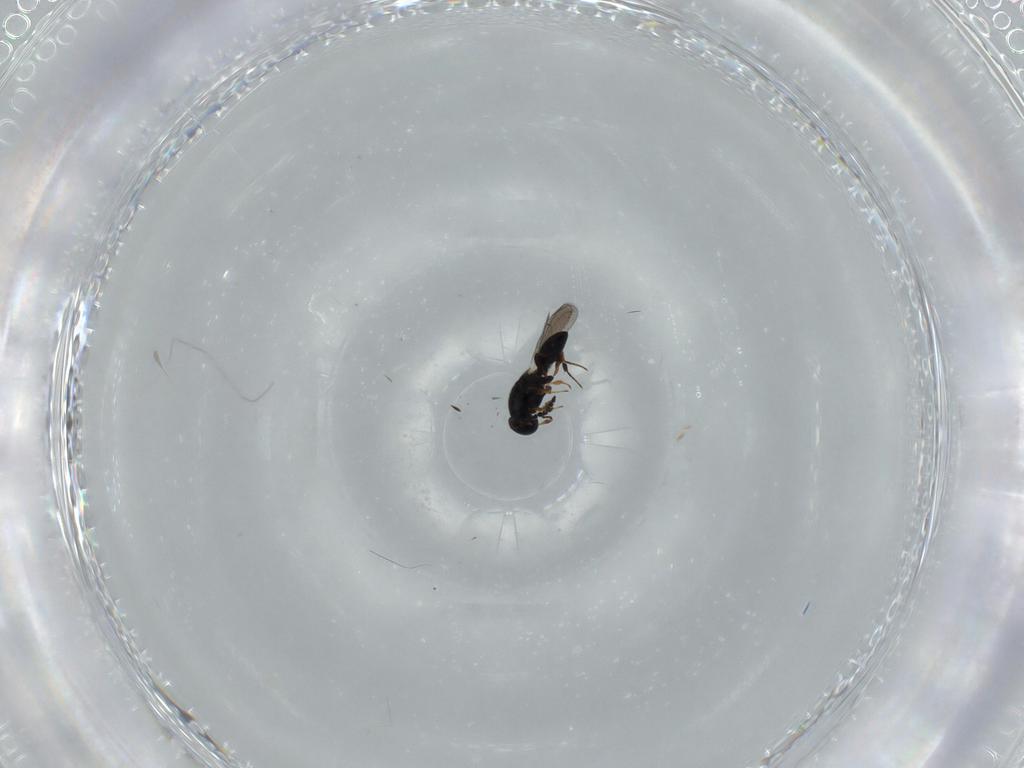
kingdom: Animalia
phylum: Arthropoda
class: Insecta
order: Hymenoptera
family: Platygastridae
